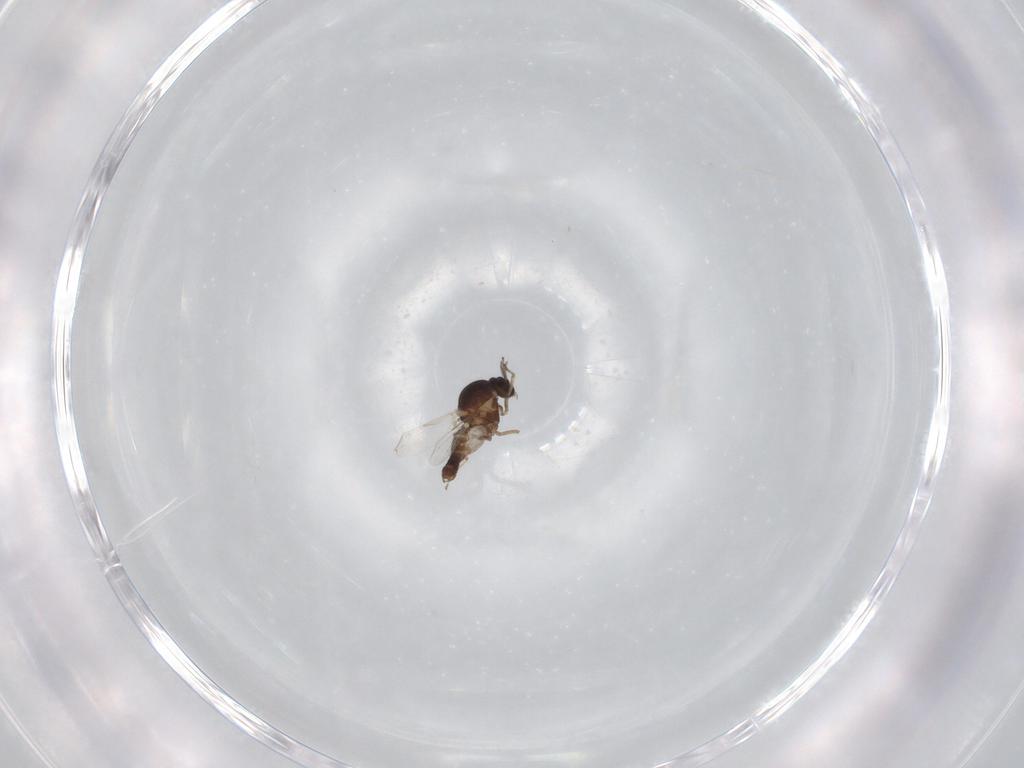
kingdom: Animalia
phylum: Arthropoda
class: Insecta
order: Diptera
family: Ceratopogonidae
